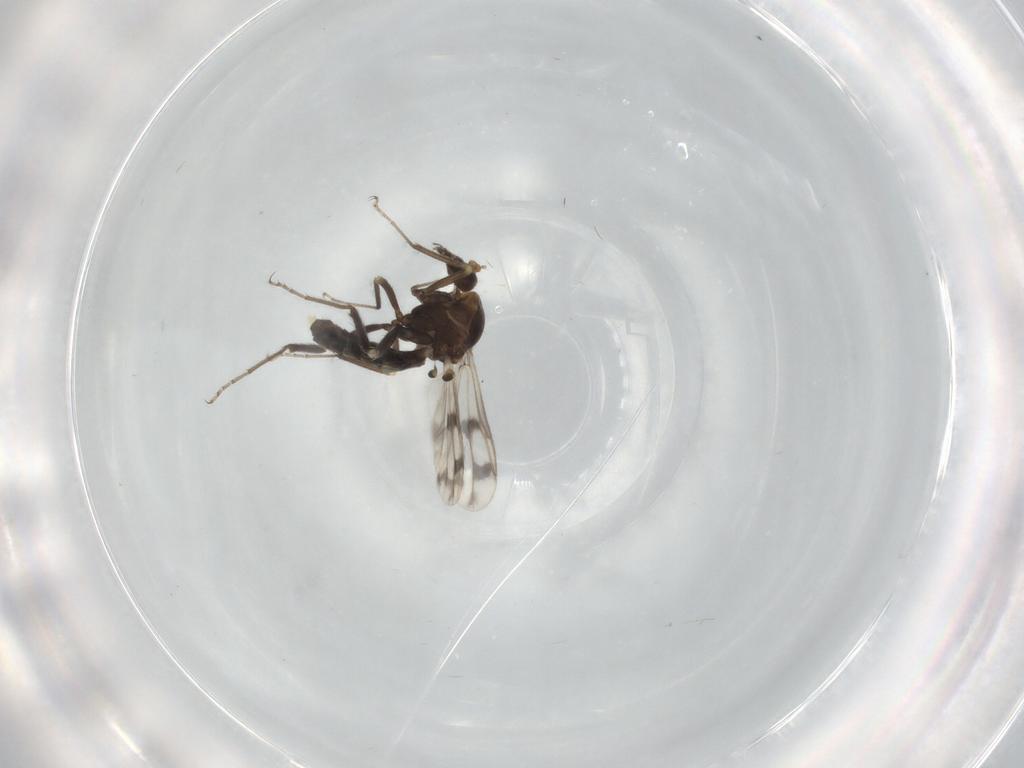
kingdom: Animalia
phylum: Arthropoda
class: Insecta
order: Diptera
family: Ceratopogonidae
